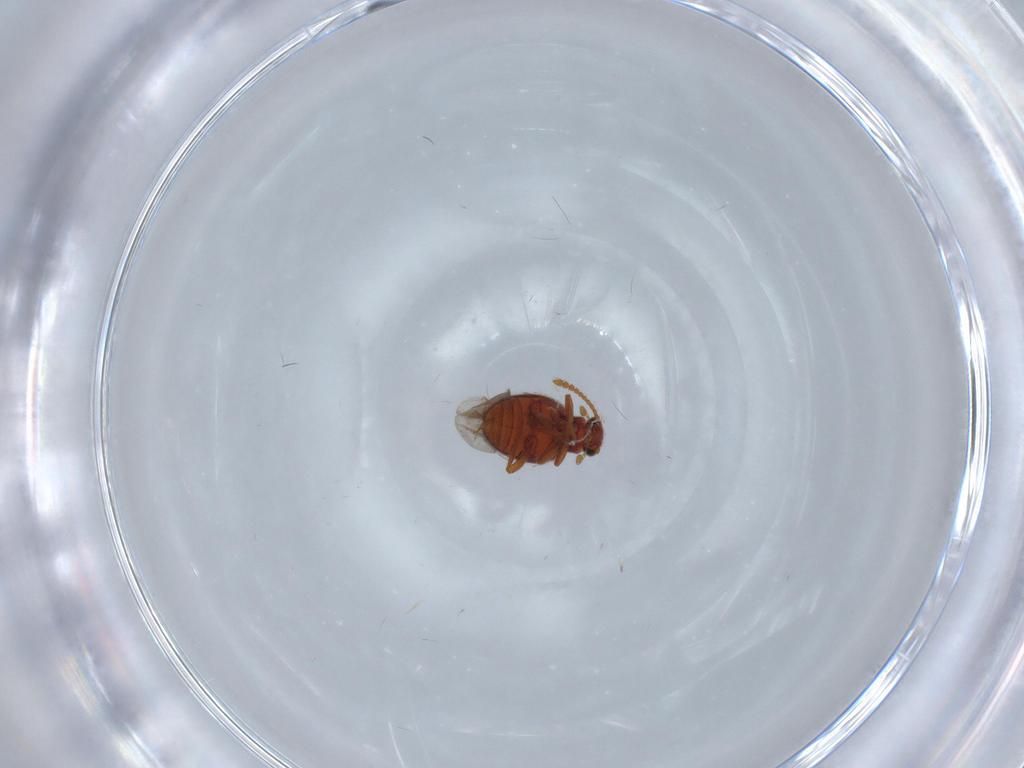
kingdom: Animalia
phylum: Arthropoda
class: Insecta
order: Coleoptera
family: Aderidae
